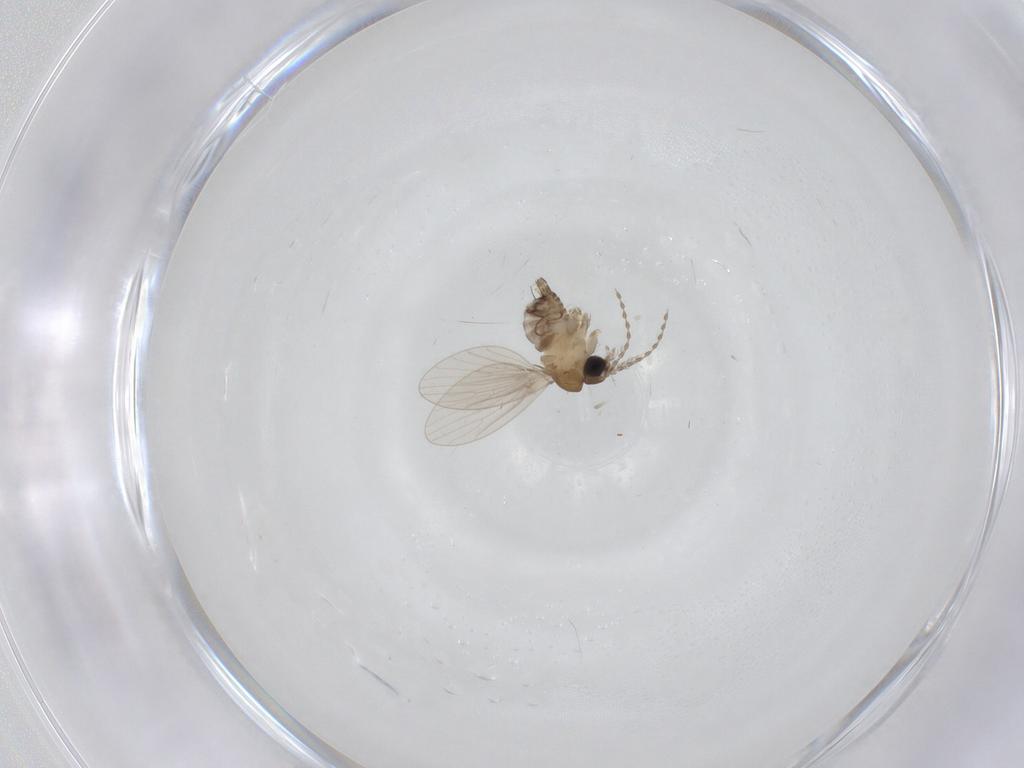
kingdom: Animalia
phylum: Arthropoda
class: Insecta
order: Diptera
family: Psychodidae
